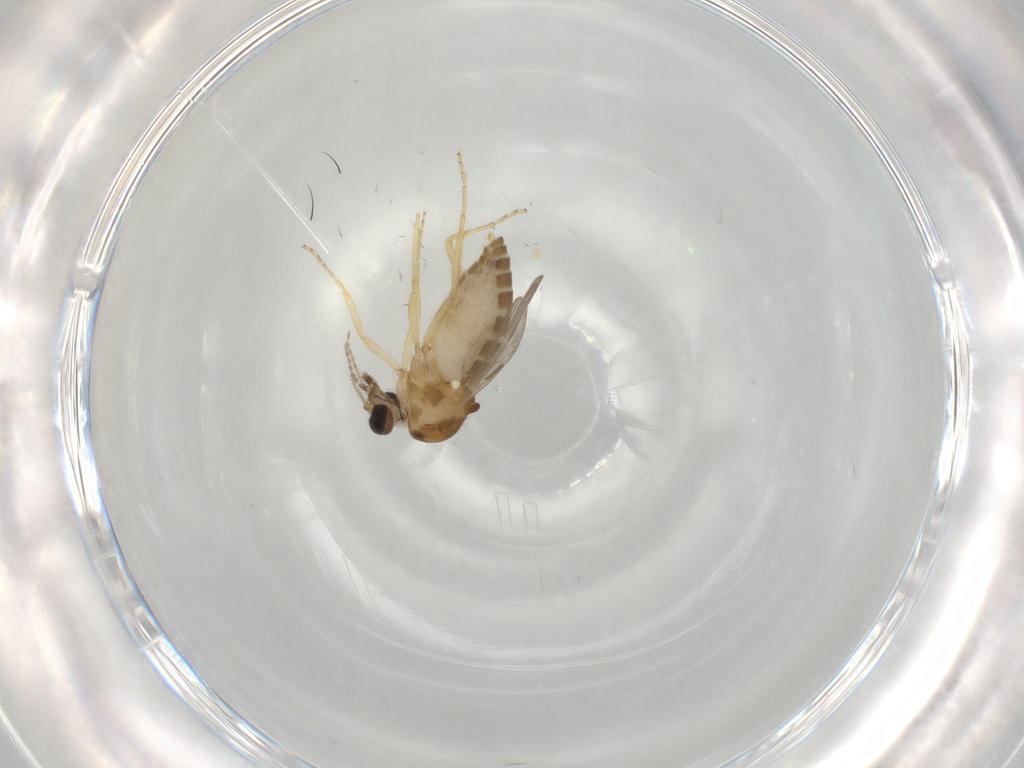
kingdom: Animalia
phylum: Arthropoda
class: Insecta
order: Diptera
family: Ceratopogonidae
